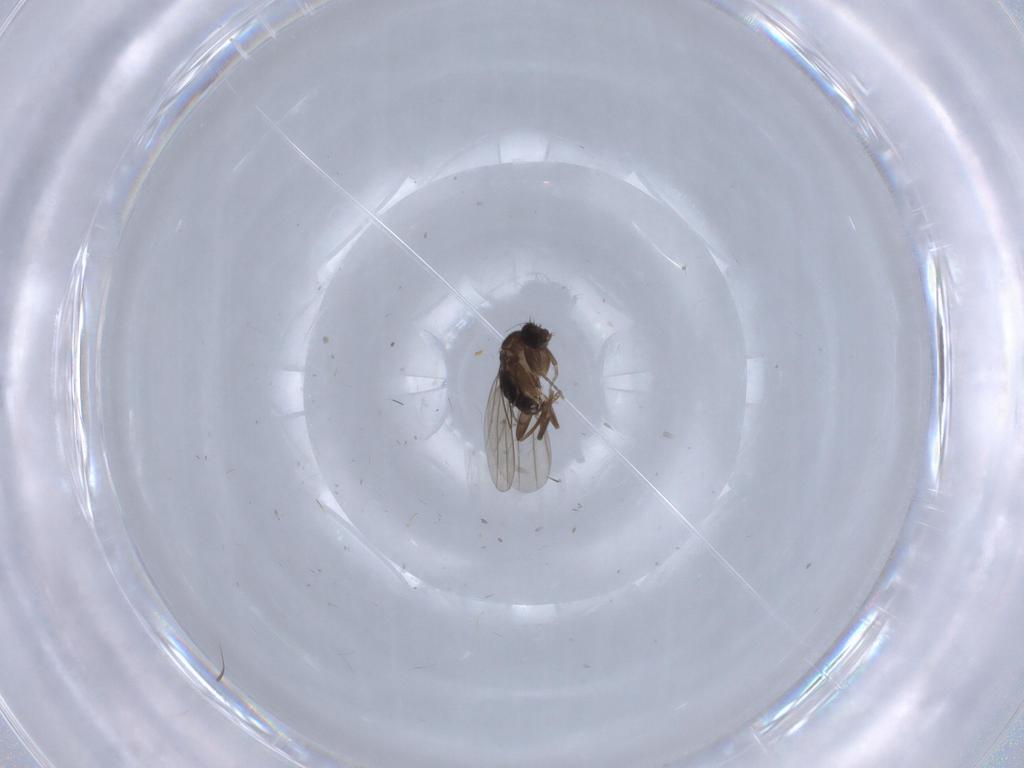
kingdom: Animalia
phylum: Arthropoda
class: Insecta
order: Diptera
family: Phoridae
